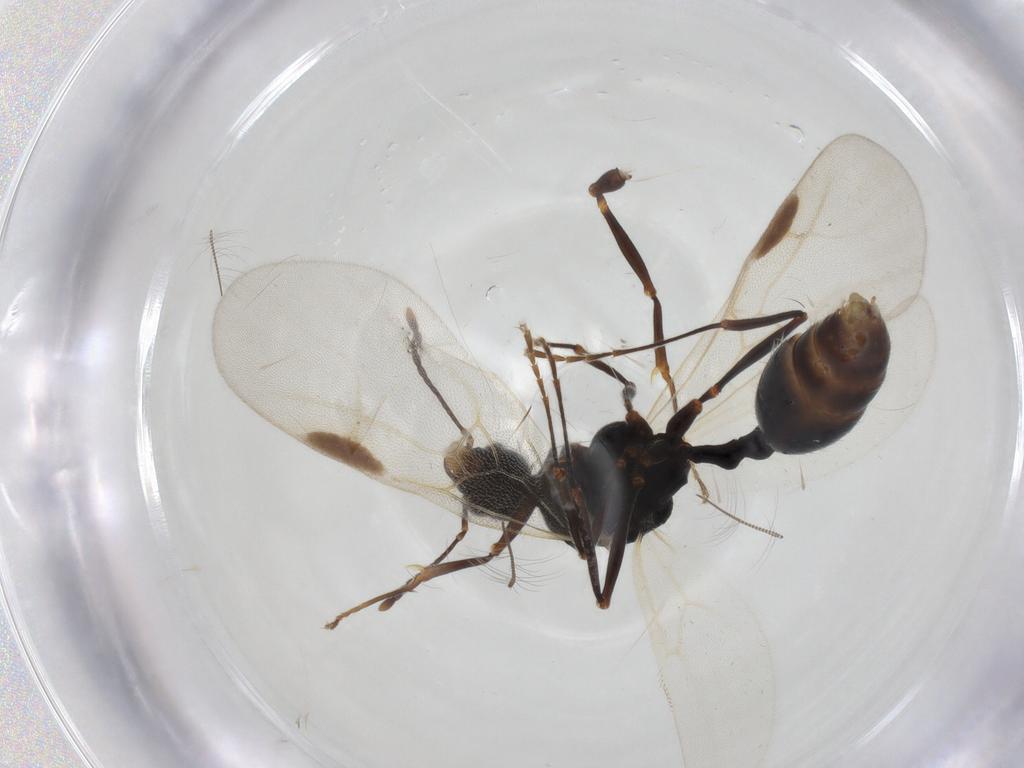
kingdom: Animalia
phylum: Arthropoda
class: Insecta
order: Hymenoptera
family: Formicidae
